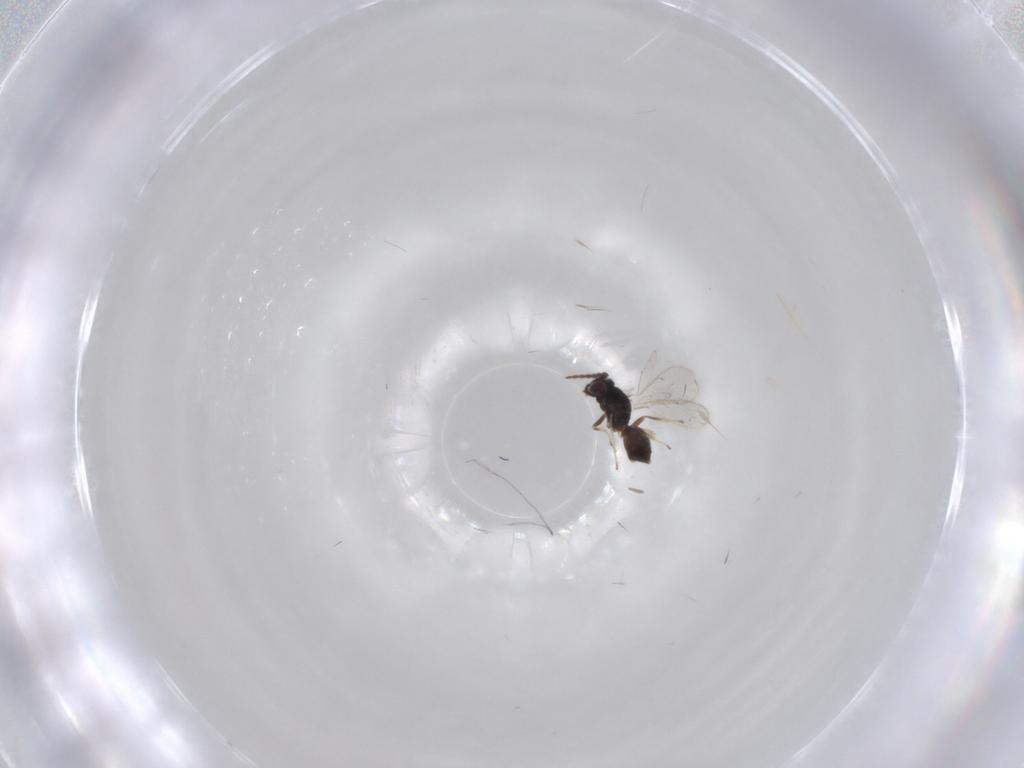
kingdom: Animalia
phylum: Arthropoda
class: Insecta
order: Hymenoptera
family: Eulophidae
